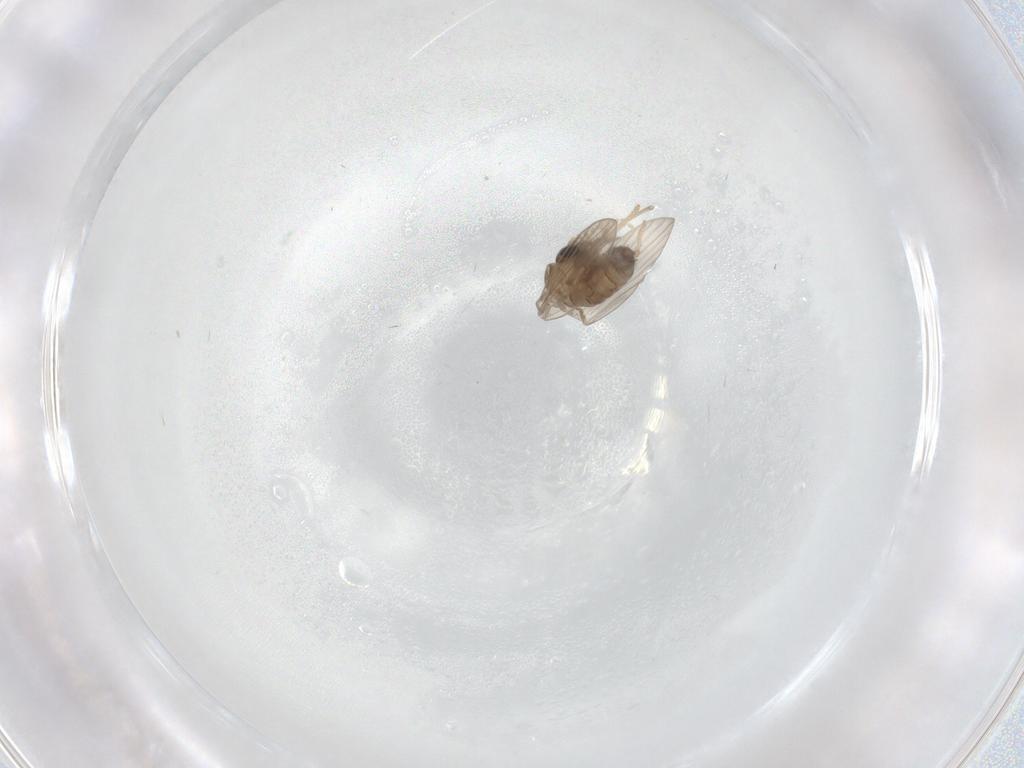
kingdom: Animalia
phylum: Arthropoda
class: Insecta
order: Diptera
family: Psychodidae
